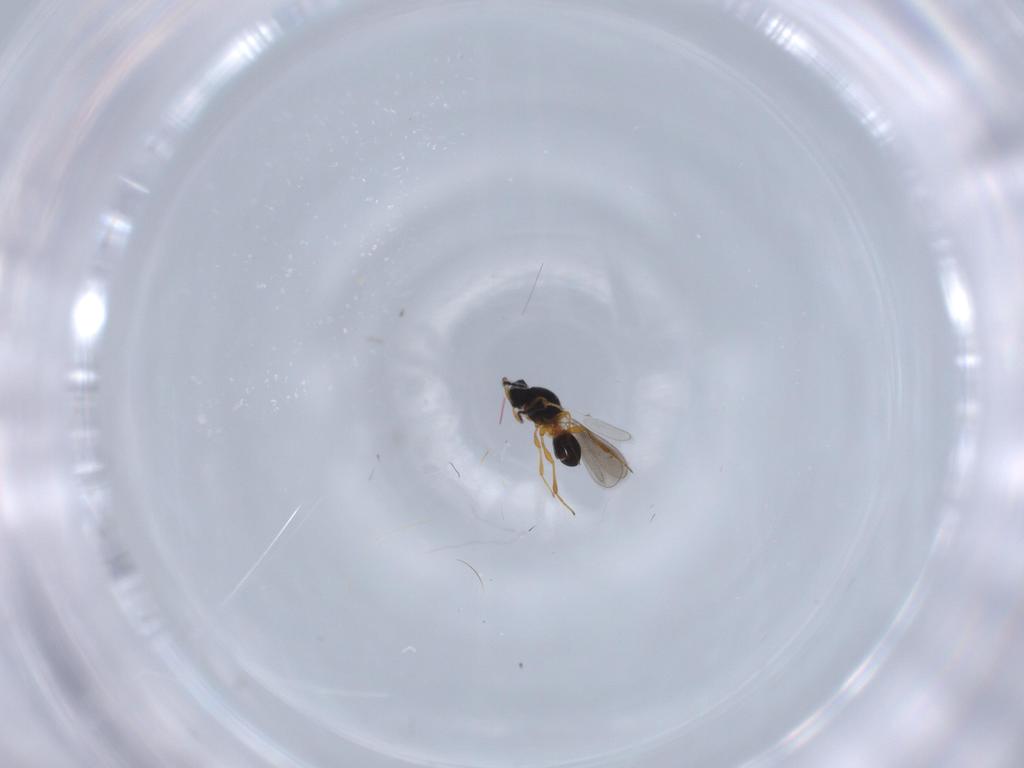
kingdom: Animalia
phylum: Arthropoda
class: Insecta
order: Hymenoptera
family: Platygastridae
